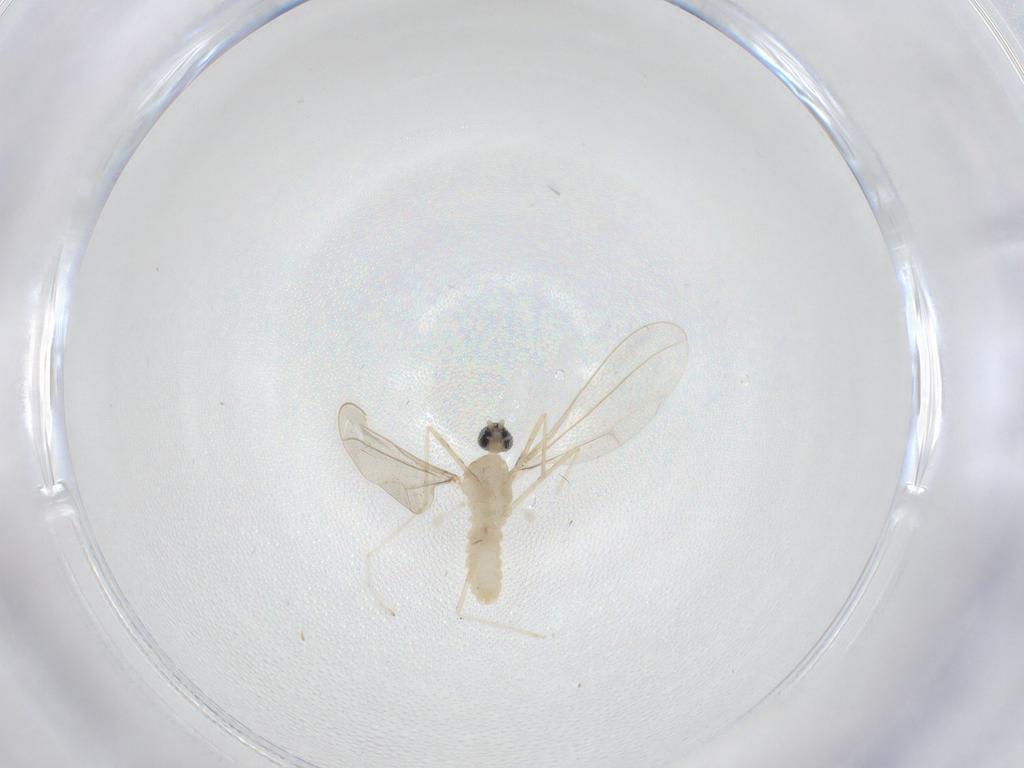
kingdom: Animalia
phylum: Arthropoda
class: Insecta
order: Diptera
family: Cecidomyiidae
